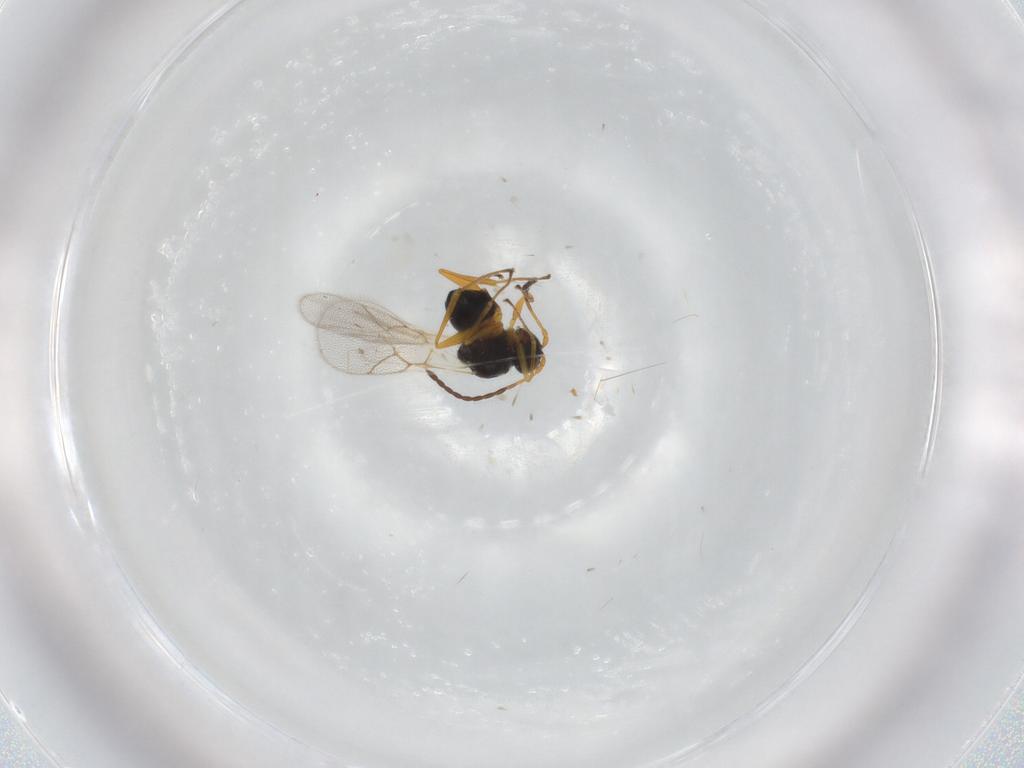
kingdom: Animalia
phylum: Arthropoda
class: Insecta
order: Hymenoptera
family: Figitidae
